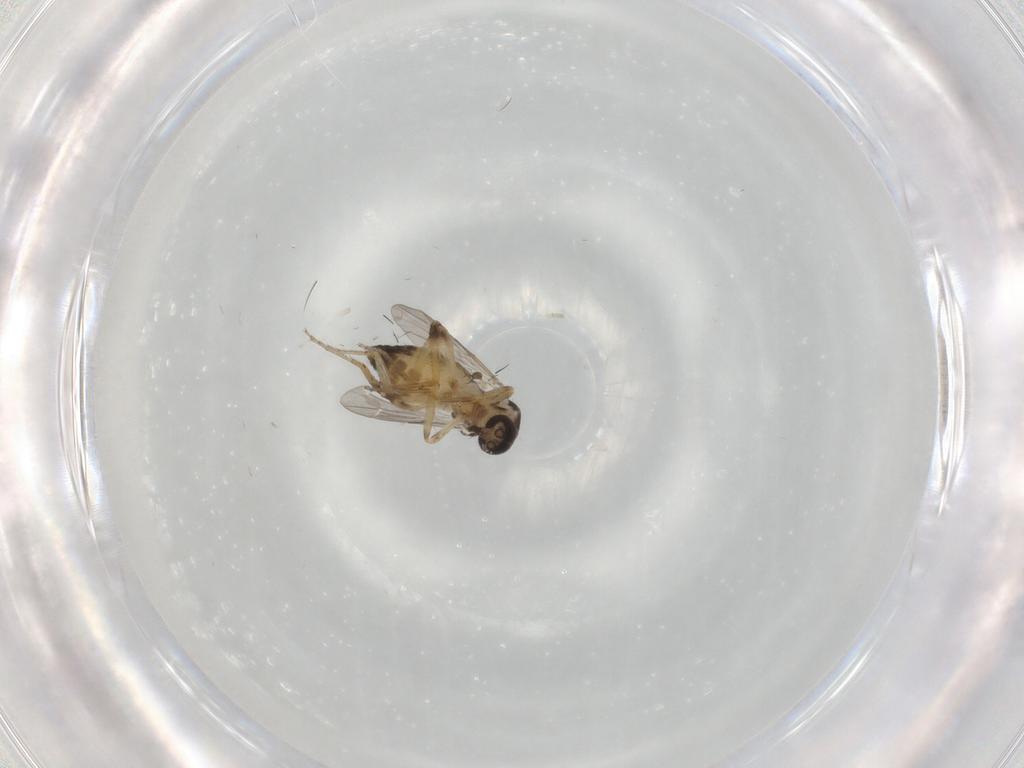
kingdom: Animalia
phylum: Arthropoda
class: Insecta
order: Diptera
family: Ceratopogonidae
